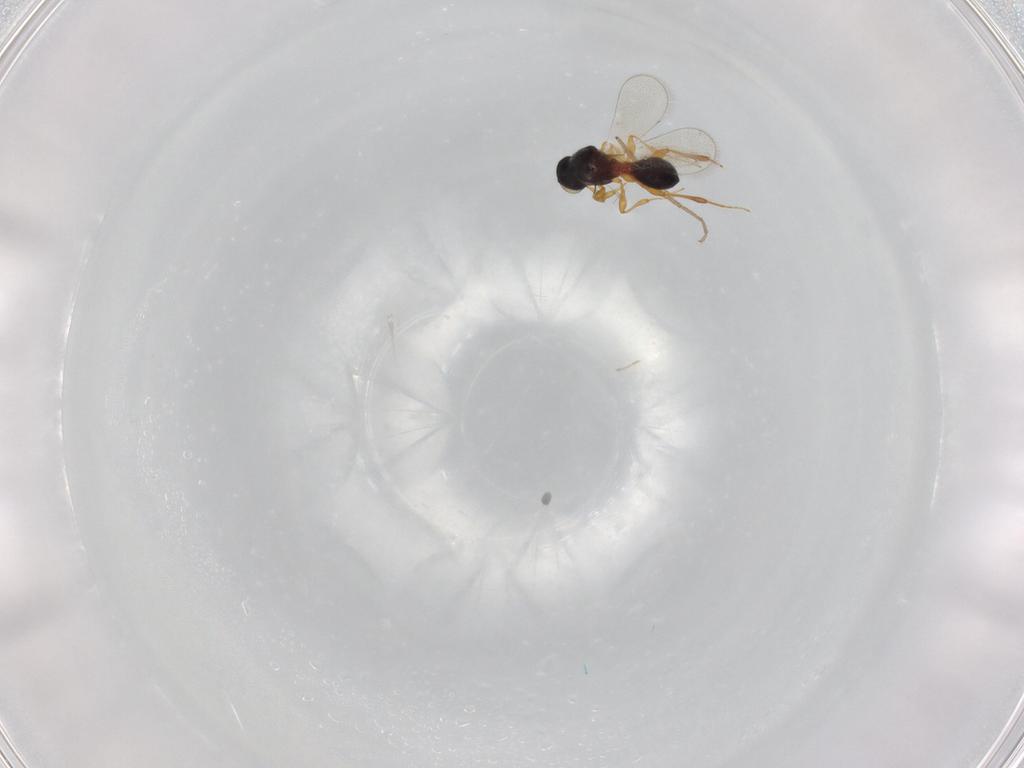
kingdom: Animalia
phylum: Arthropoda
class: Insecta
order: Hymenoptera
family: Platygastridae
